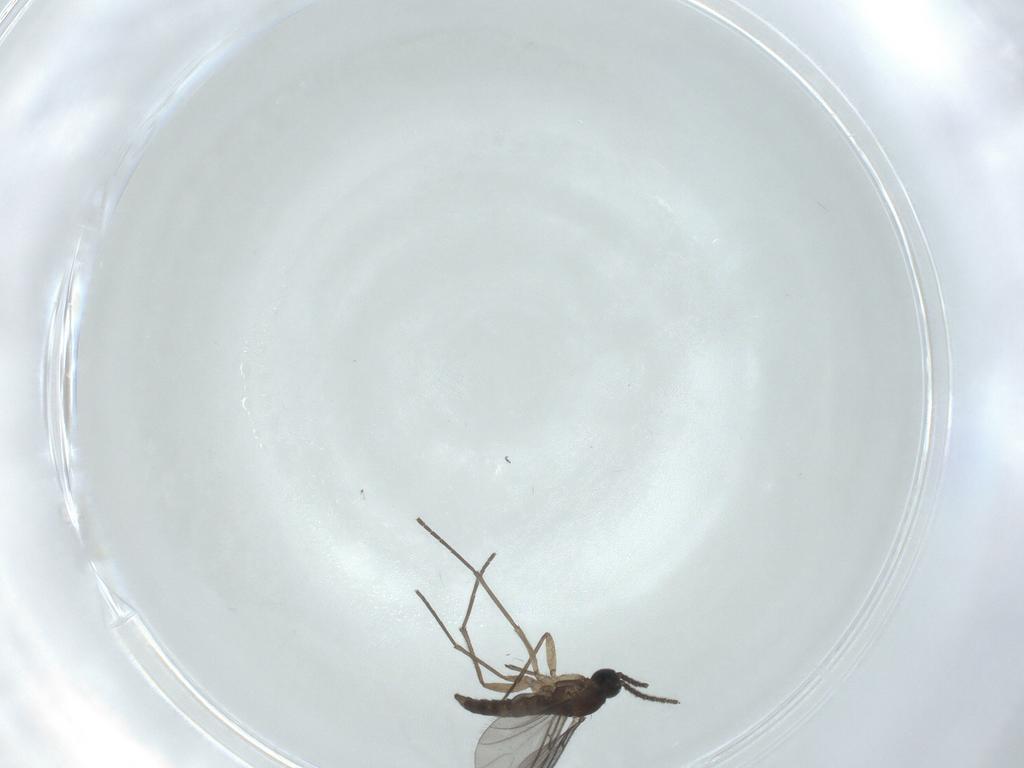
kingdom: Animalia
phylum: Arthropoda
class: Insecta
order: Diptera
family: Sciaridae
